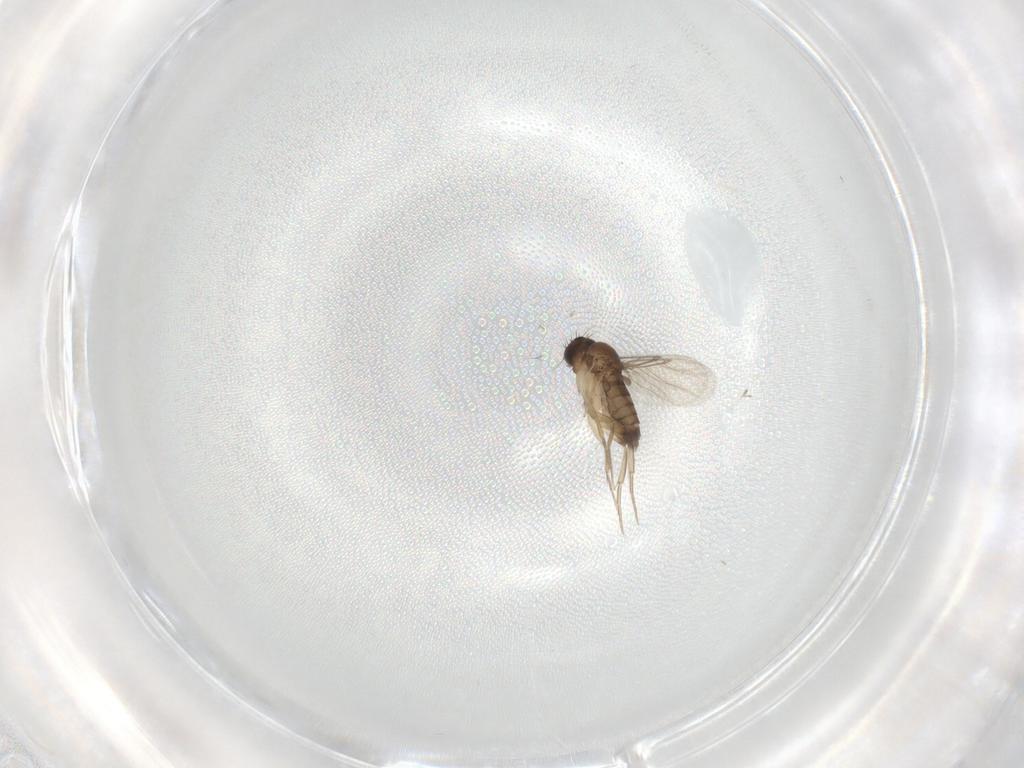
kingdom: Animalia
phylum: Arthropoda
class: Insecta
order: Diptera
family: Phoridae
